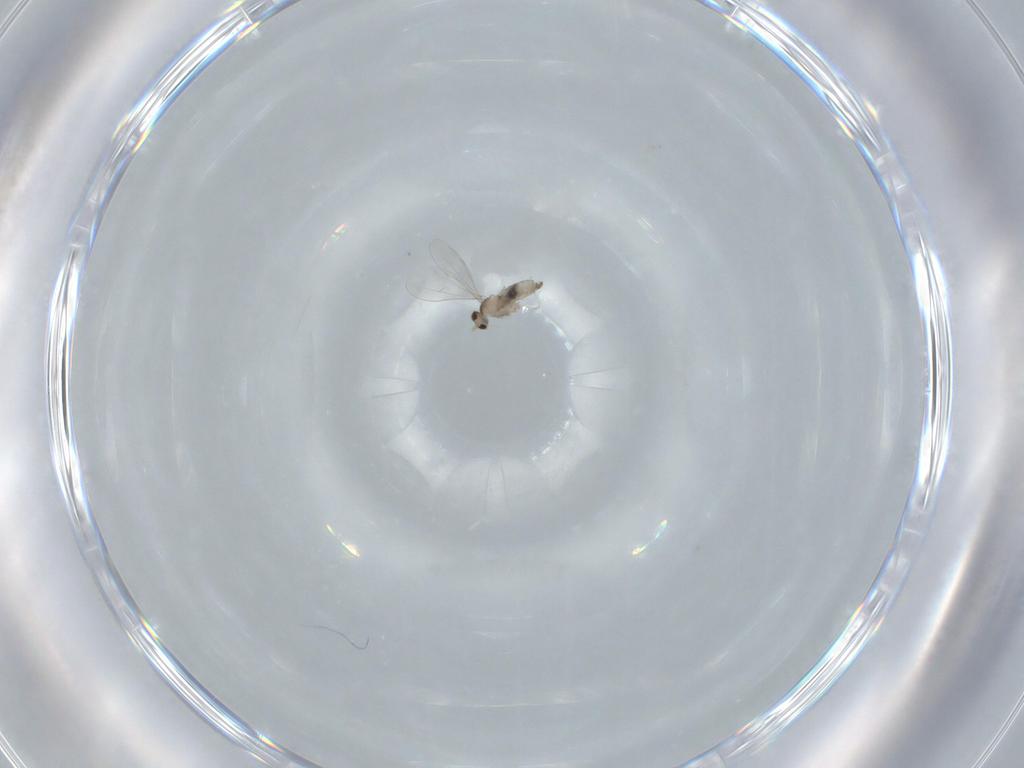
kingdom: Animalia
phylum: Arthropoda
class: Insecta
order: Diptera
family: Cecidomyiidae
